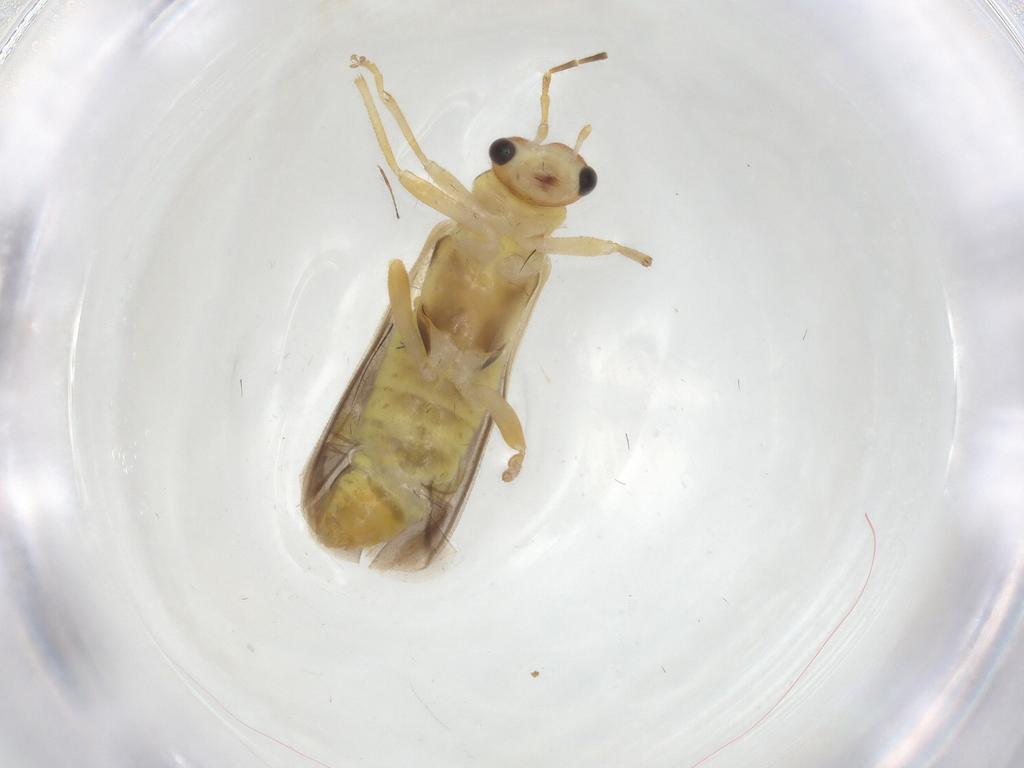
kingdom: Animalia
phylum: Arthropoda
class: Insecta
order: Coleoptera
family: Cantharidae
